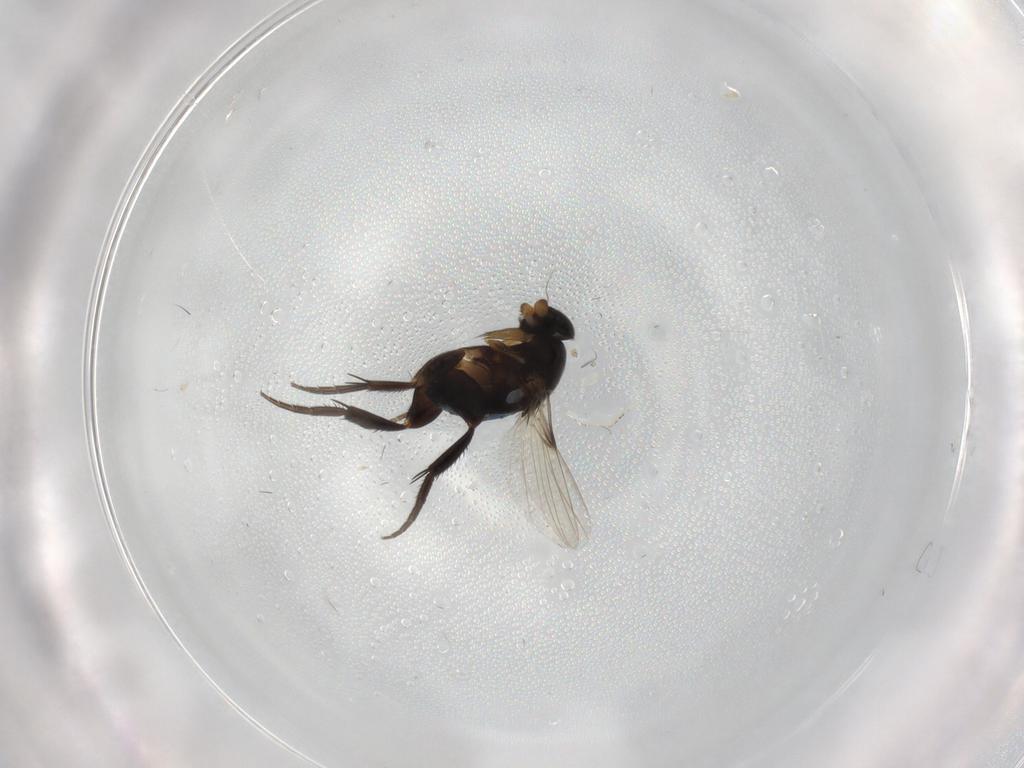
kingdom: Animalia
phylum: Arthropoda
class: Insecta
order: Diptera
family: Phoridae
